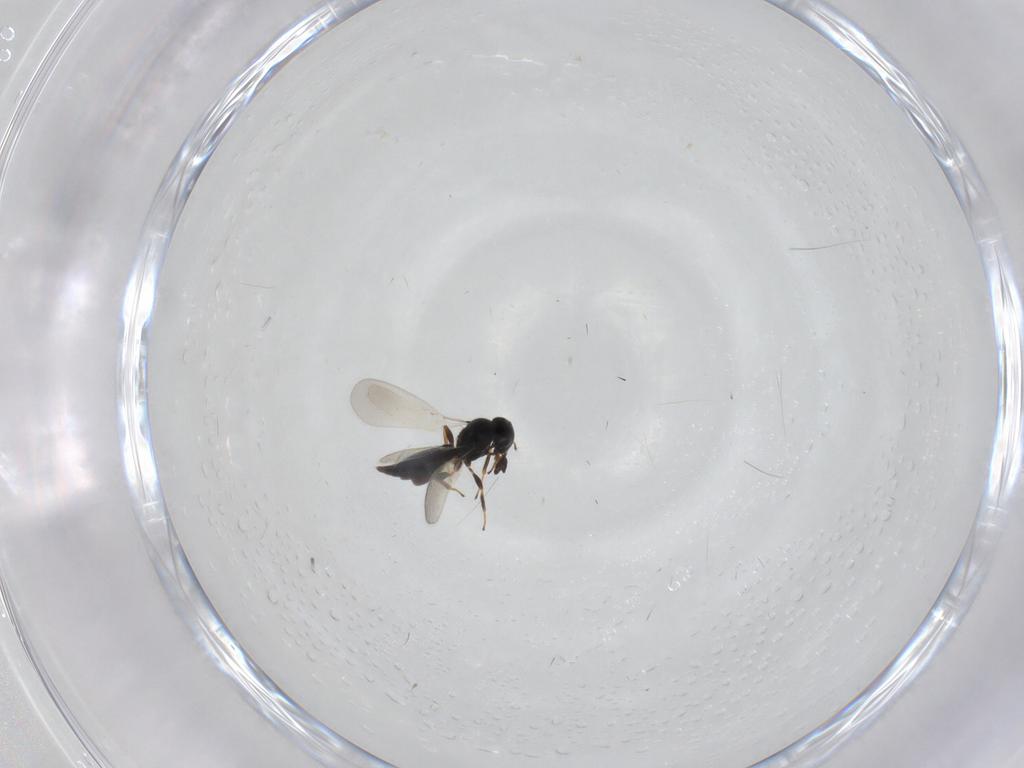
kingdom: Animalia
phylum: Arthropoda
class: Insecta
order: Hymenoptera
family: Platygastridae
